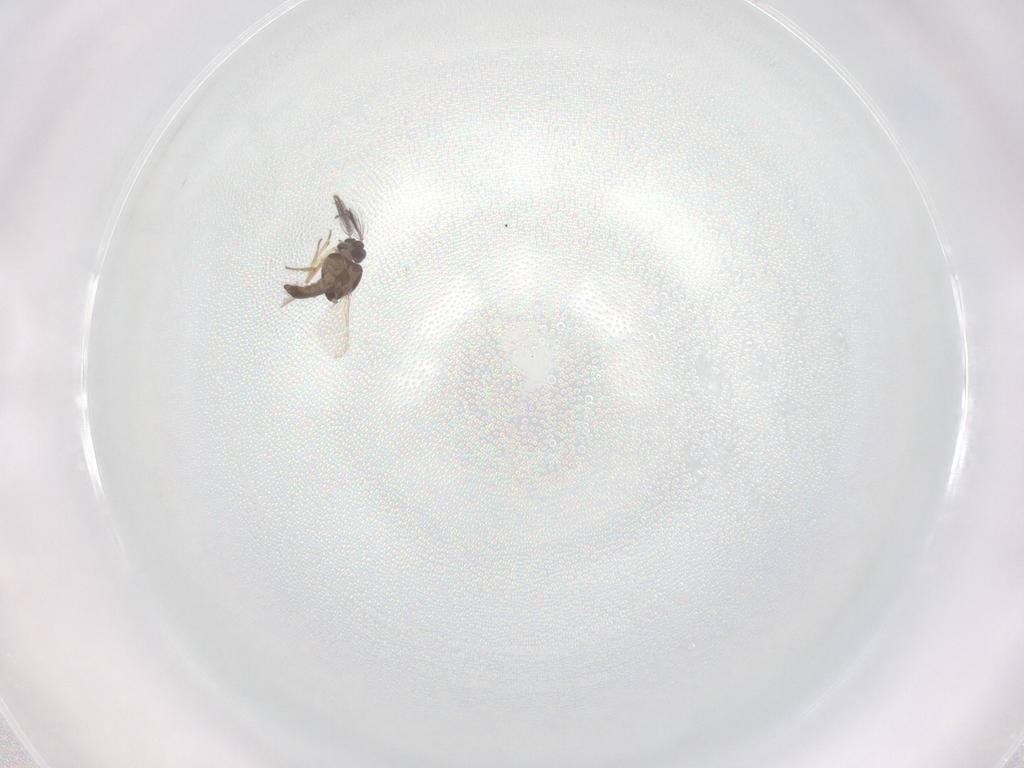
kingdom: Animalia
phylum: Arthropoda
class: Insecta
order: Diptera
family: Ceratopogonidae
